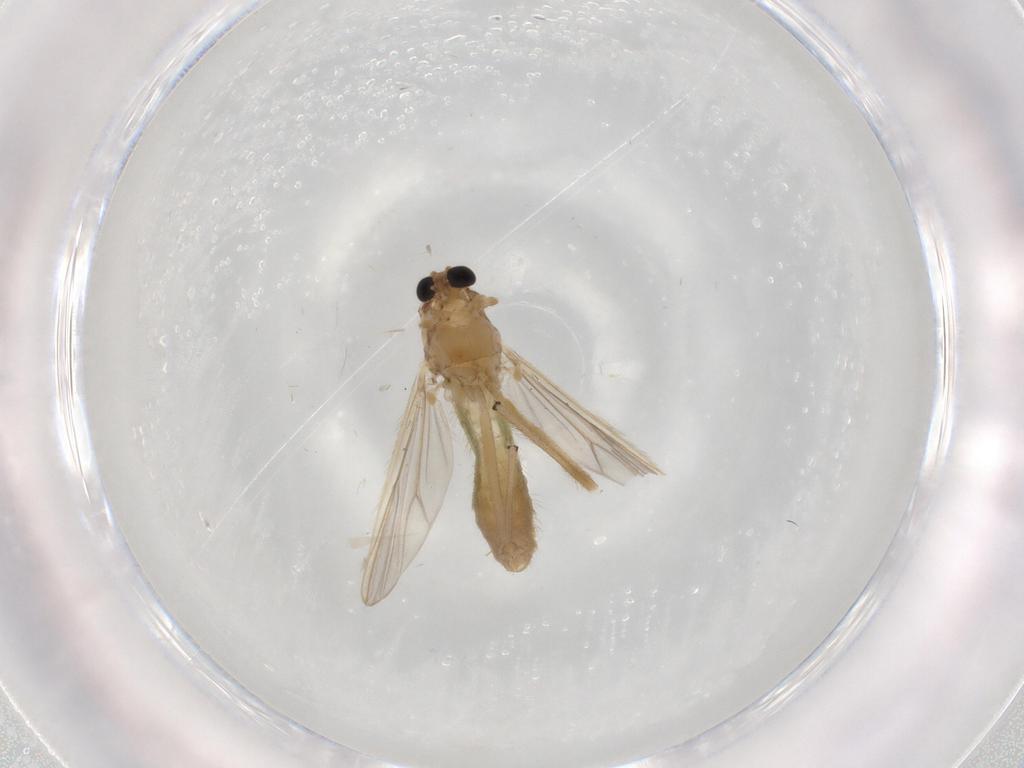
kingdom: Animalia
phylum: Arthropoda
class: Insecta
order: Diptera
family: Chironomidae
